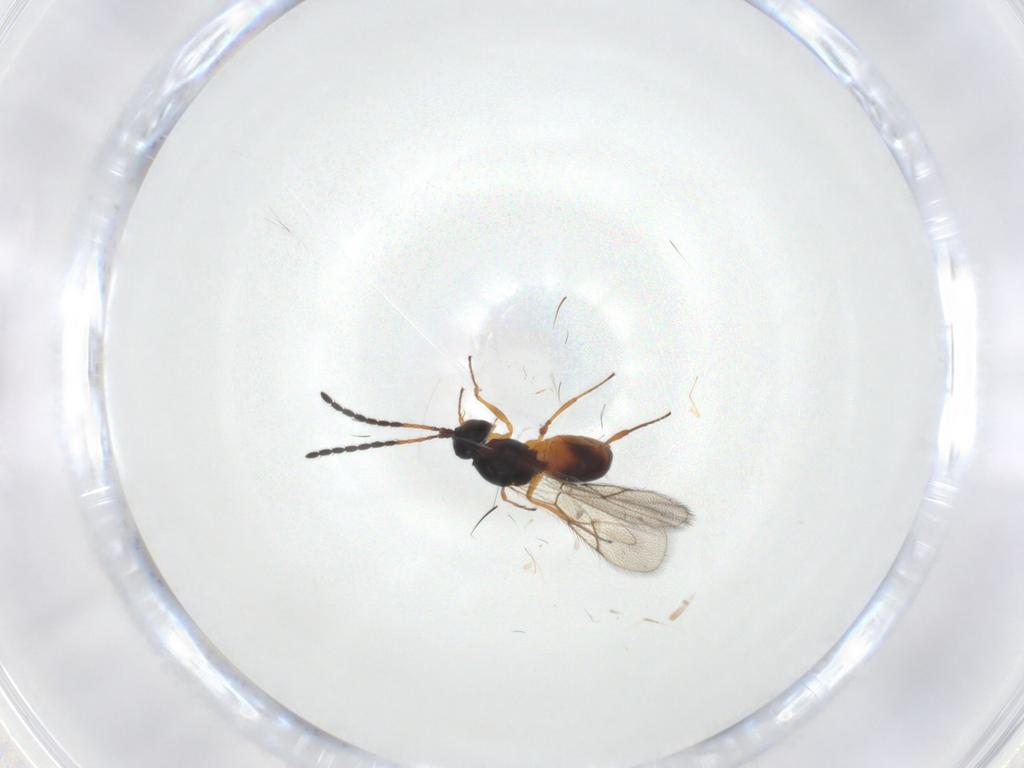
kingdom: Animalia
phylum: Arthropoda
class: Insecta
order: Hymenoptera
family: Figitidae
